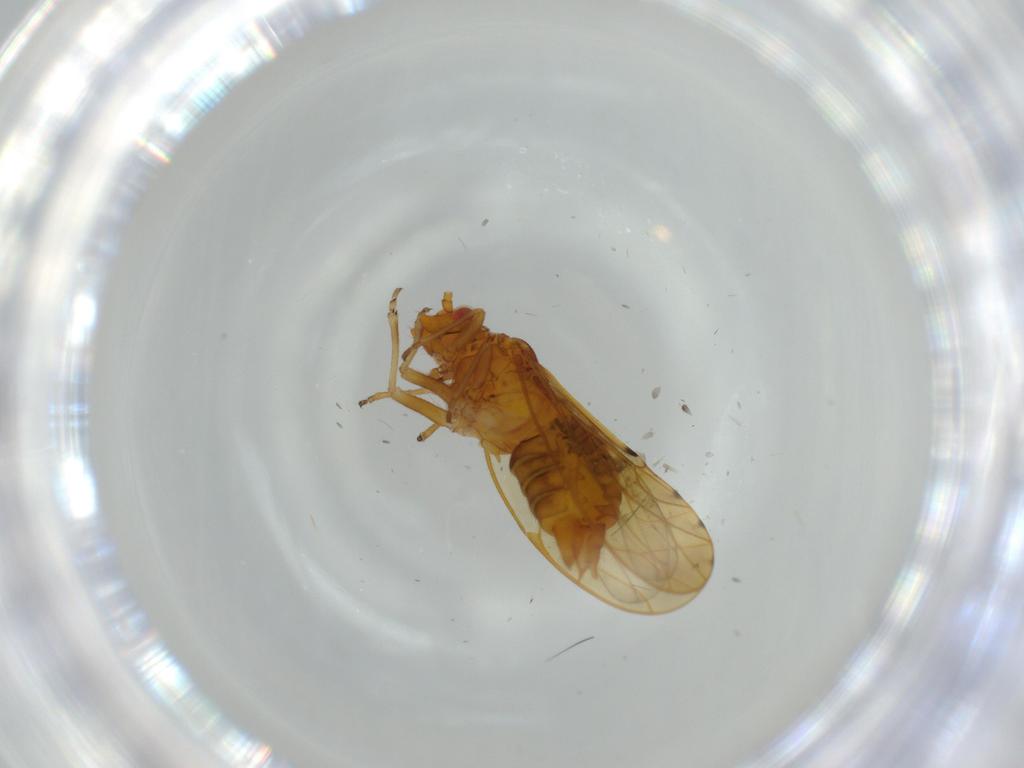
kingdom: Animalia
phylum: Arthropoda
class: Insecta
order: Hemiptera
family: Psylloidea_incertae_sedis
